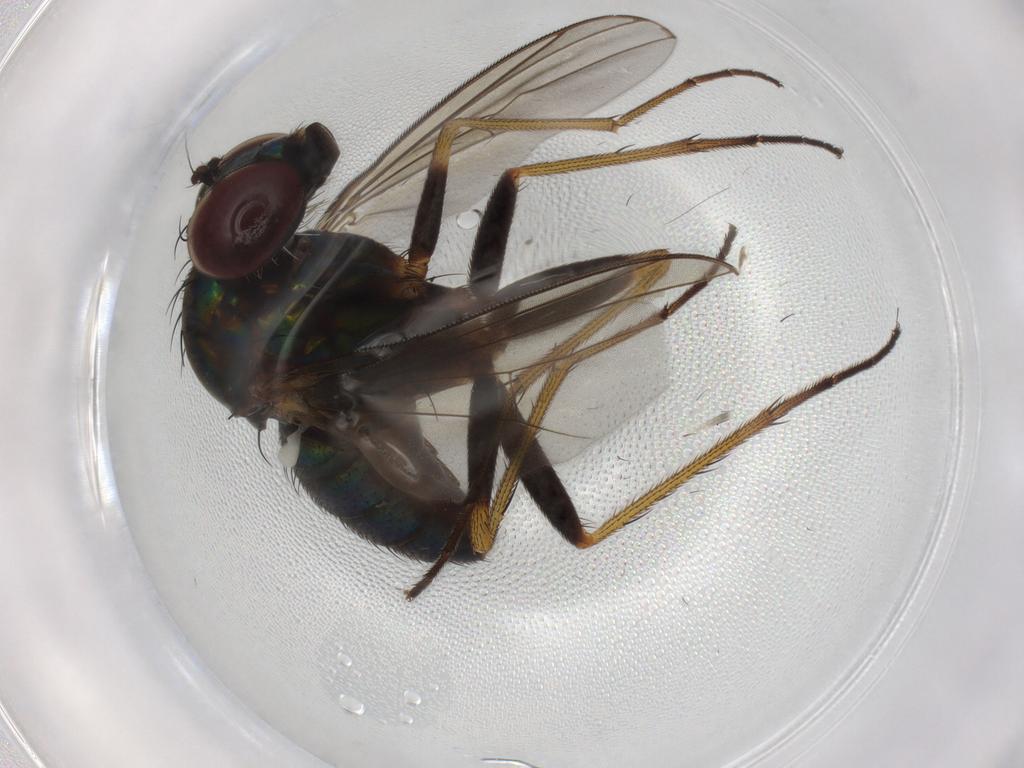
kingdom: Animalia
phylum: Arthropoda
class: Insecta
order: Diptera
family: Dolichopodidae
